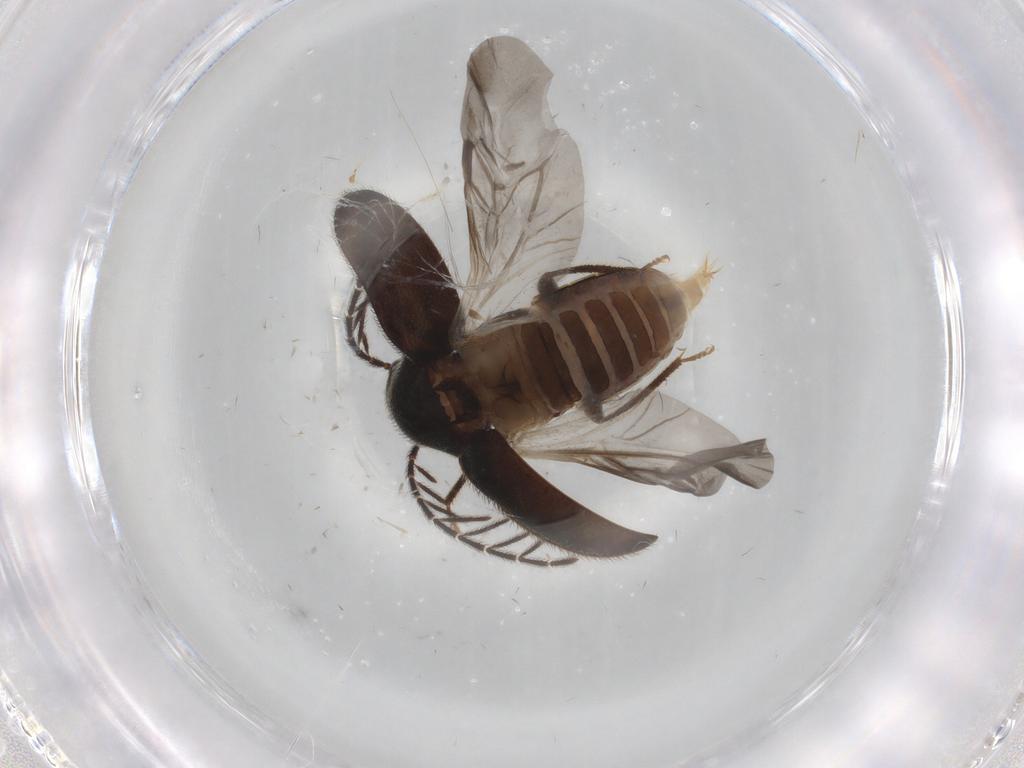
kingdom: Animalia
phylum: Arthropoda
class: Insecta
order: Coleoptera
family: Ptilodactylidae
